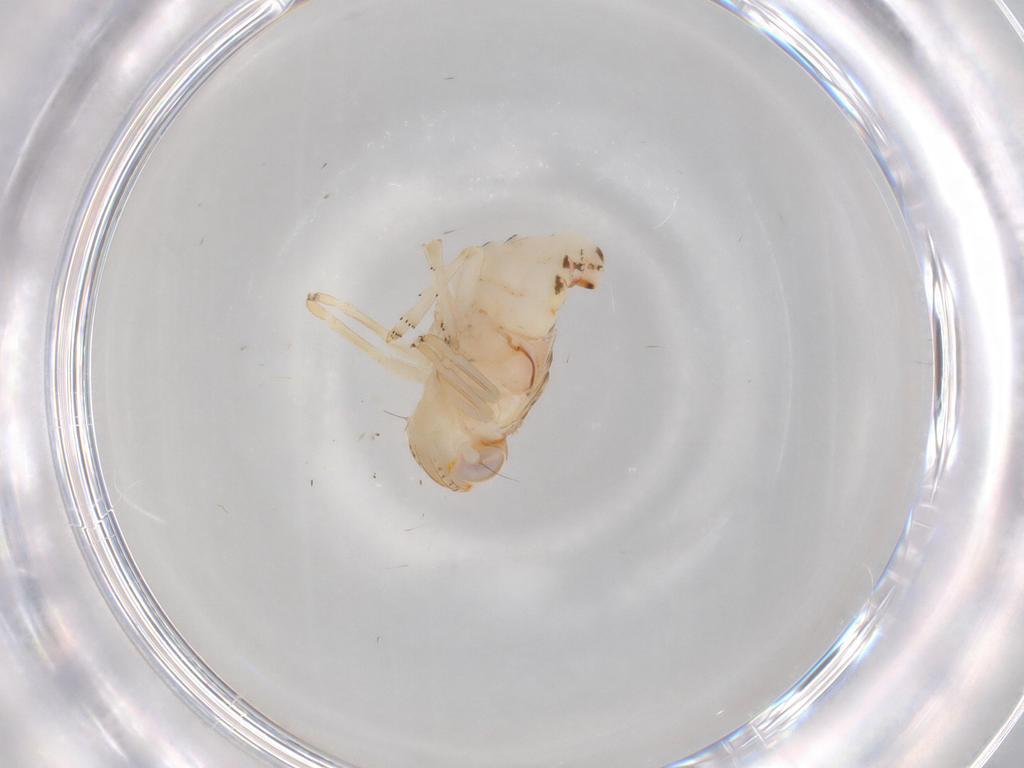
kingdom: Animalia
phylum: Arthropoda
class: Insecta
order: Hemiptera
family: Nogodinidae
